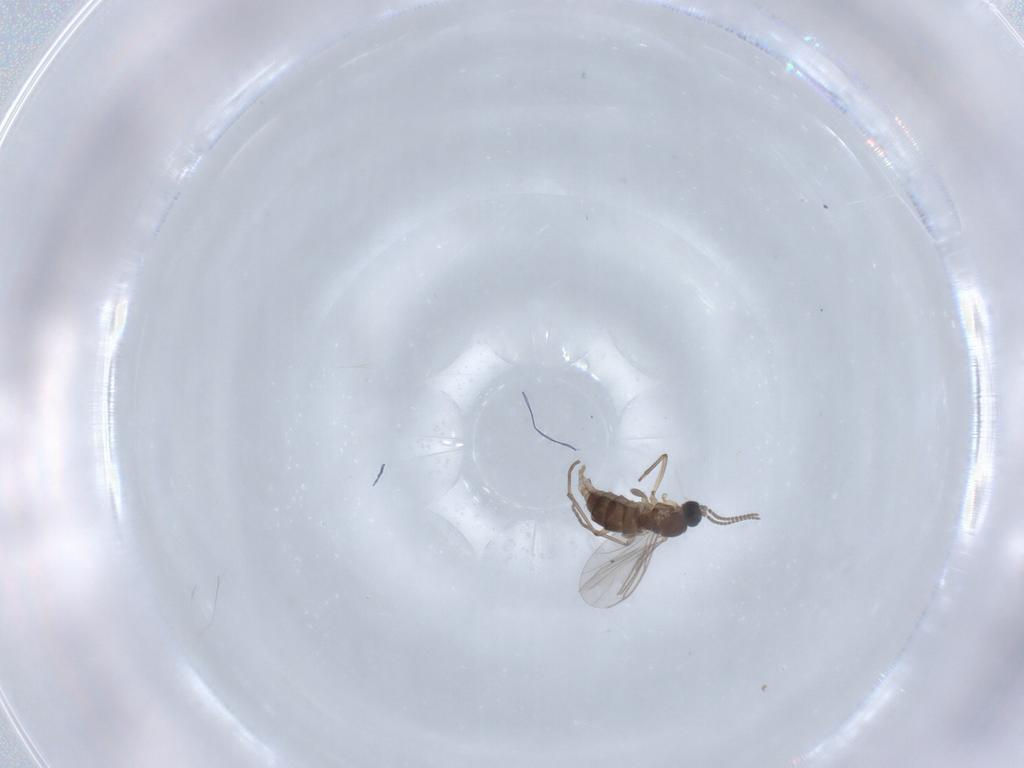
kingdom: Animalia
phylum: Arthropoda
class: Insecta
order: Diptera
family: Sciaridae
